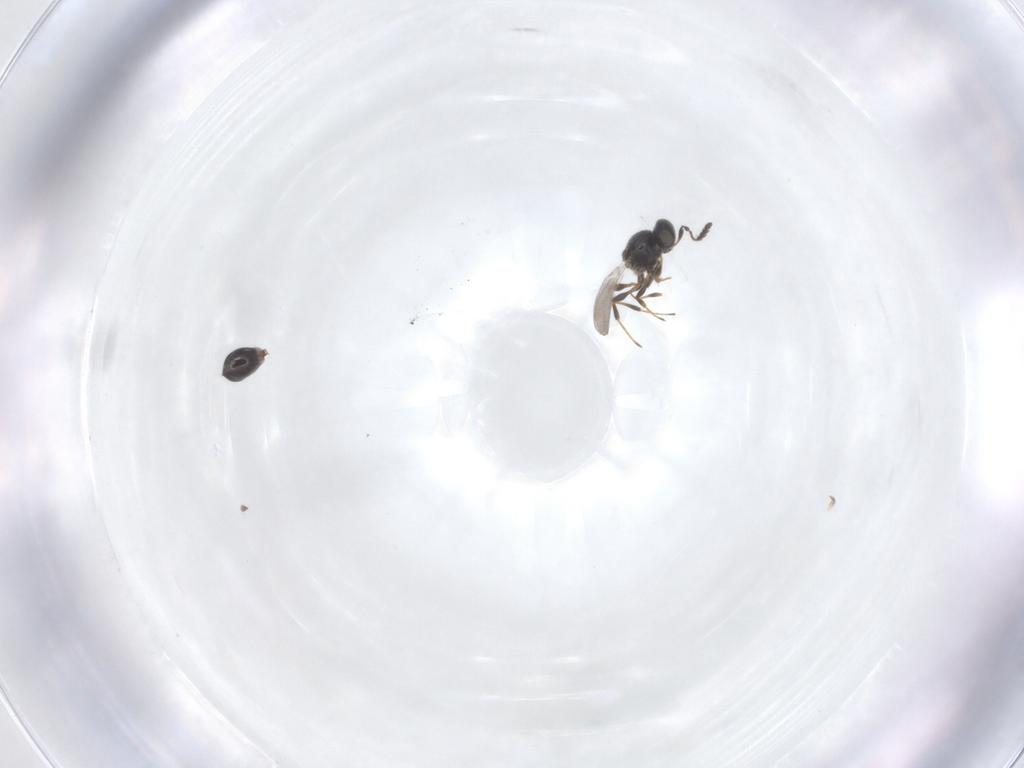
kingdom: Animalia
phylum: Arthropoda
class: Insecta
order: Hymenoptera
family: Platygastridae
